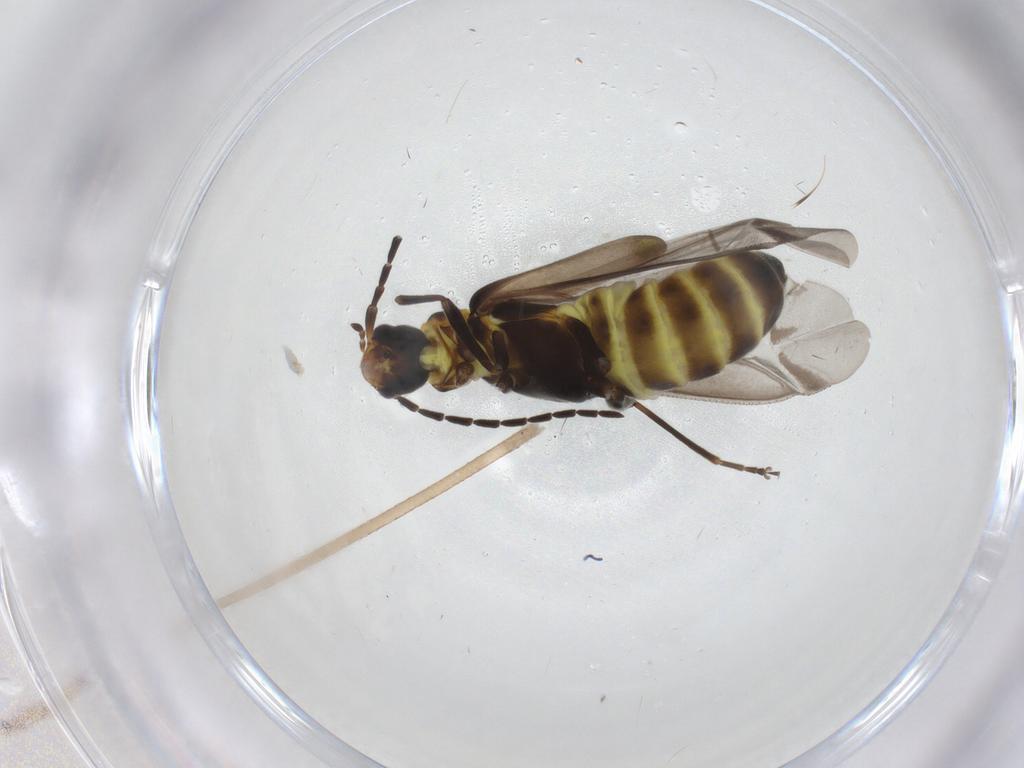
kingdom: Animalia
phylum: Arthropoda
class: Insecta
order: Coleoptera
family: Cantharidae
